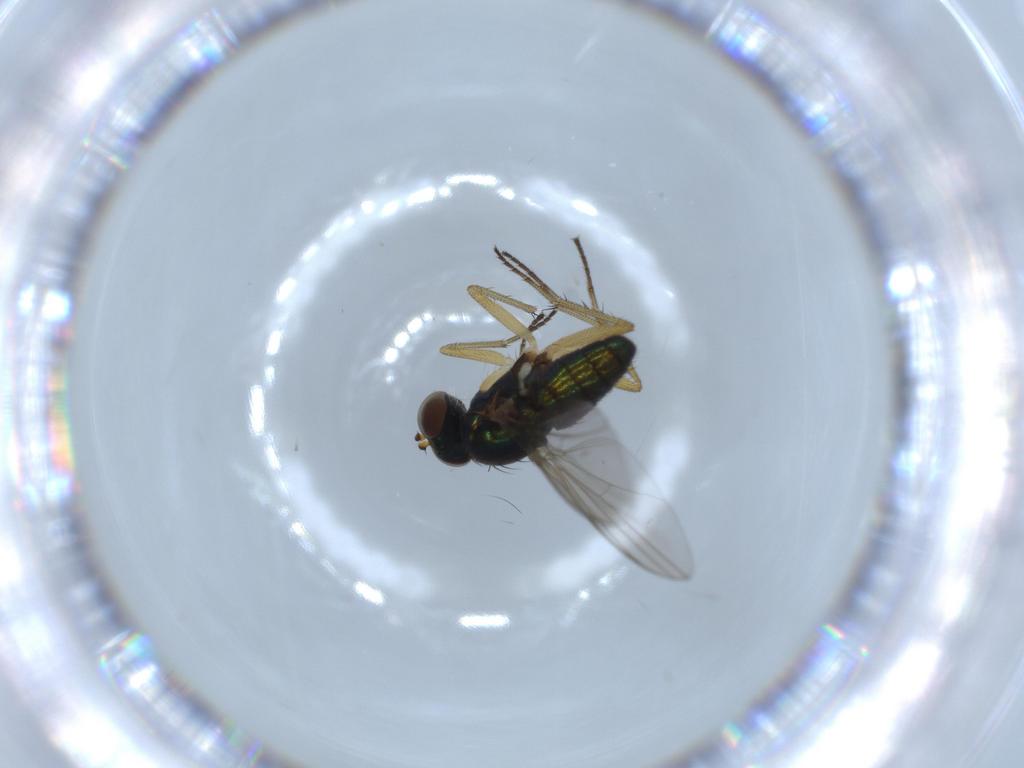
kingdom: Animalia
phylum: Arthropoda
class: Insecta
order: Diptera
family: Dolichopodidae
